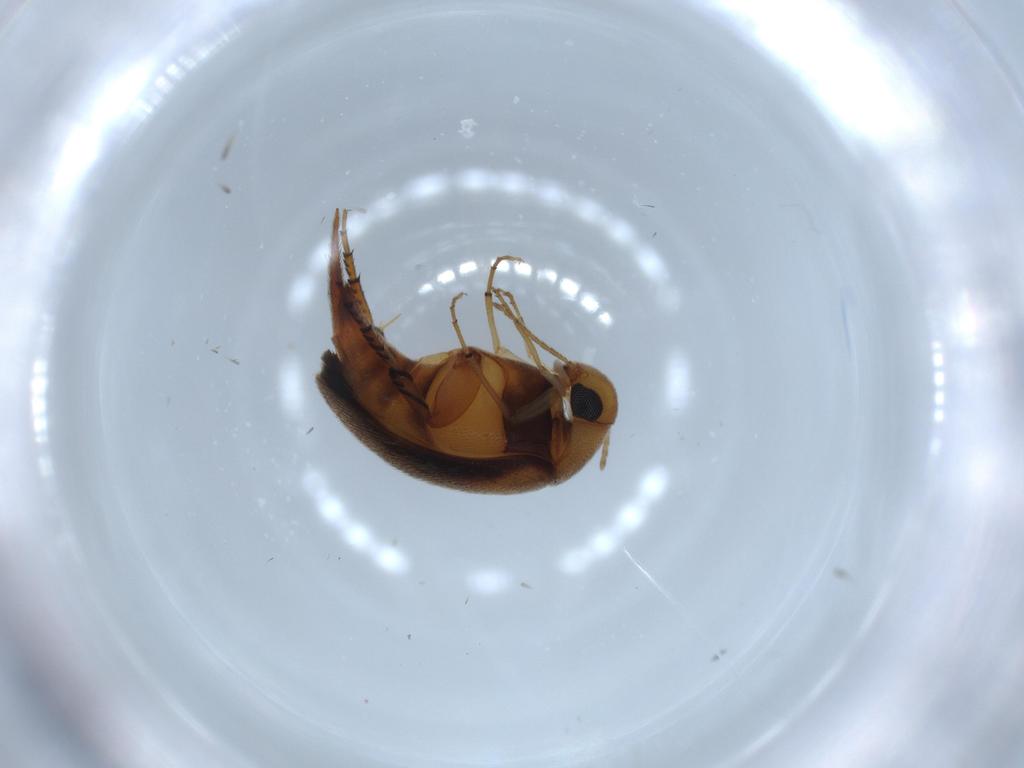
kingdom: Animalia
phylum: Arthropoda
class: Insecta
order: Coleoptera
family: Mordellidae
